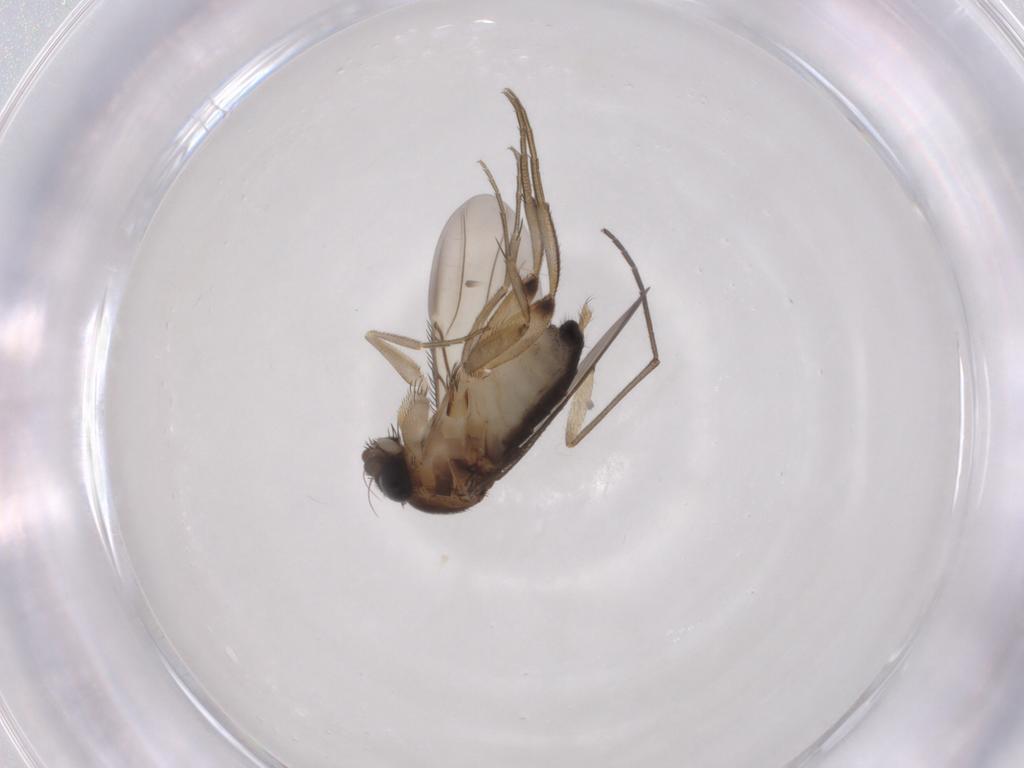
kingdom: Animalia
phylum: Arthropoda
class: Insecta
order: Diptera
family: Phoridae
